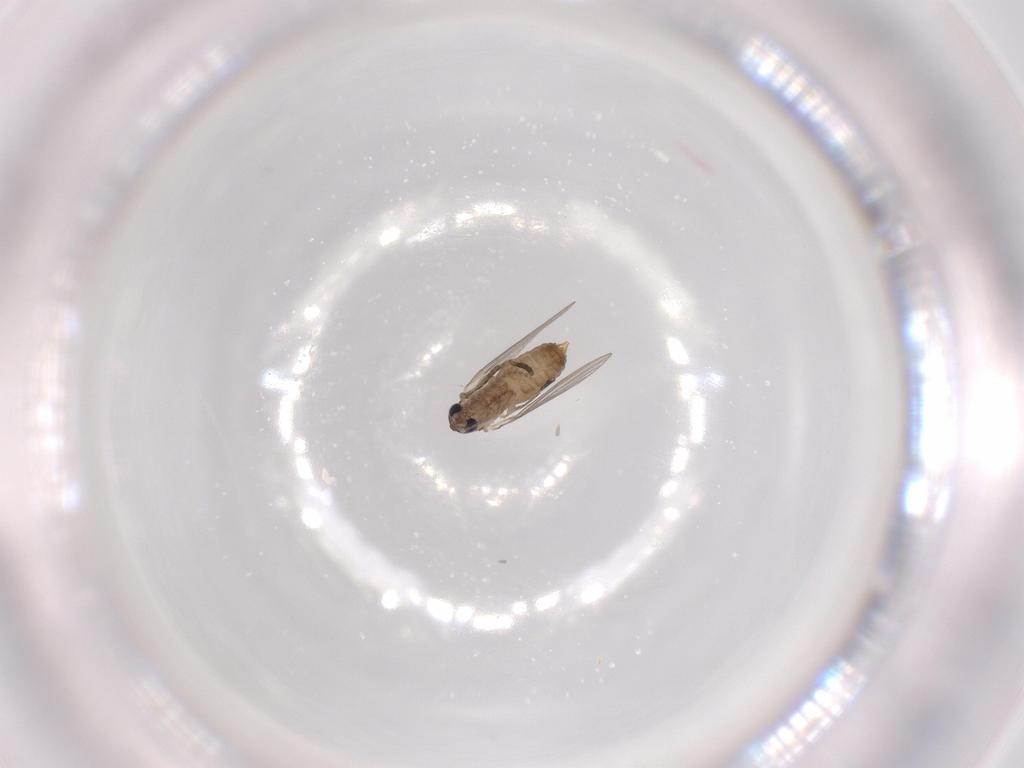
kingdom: Animalia
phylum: Arthropoda
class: Insecta
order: Diptera
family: Psychodidae
